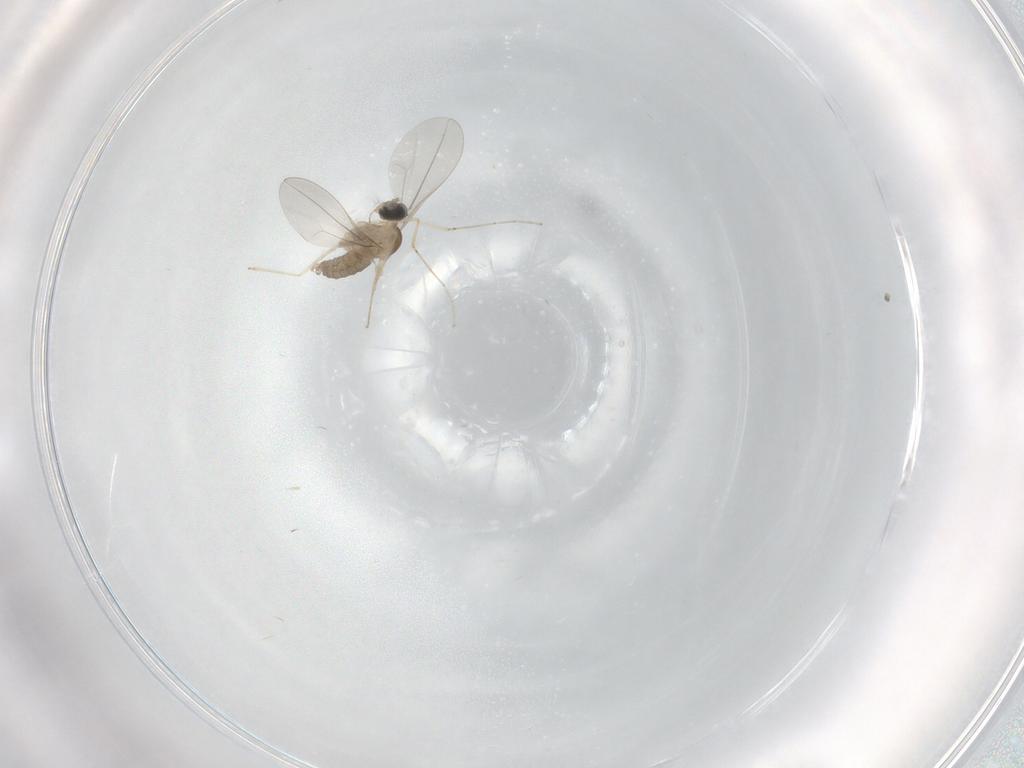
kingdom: Animalia
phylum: Arthropoda
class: Insecta
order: Diptera
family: Cecidomyiidae
